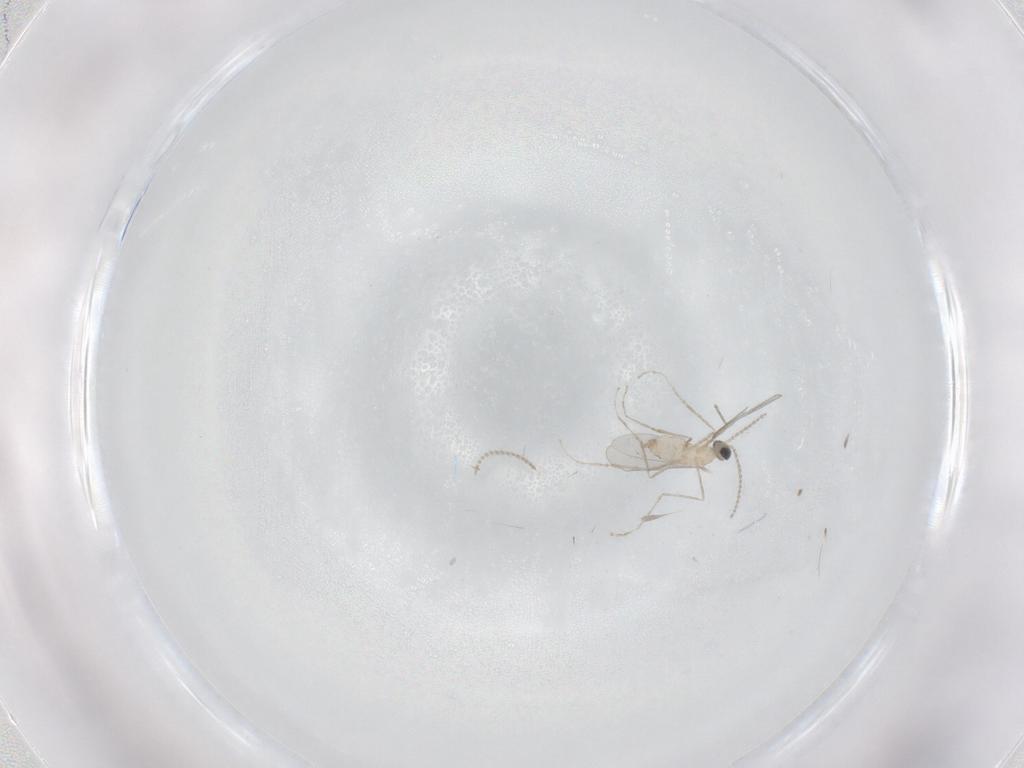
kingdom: Animalia
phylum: Arthropoda
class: Insecta
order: Diptera
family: Cecidomyiidae
